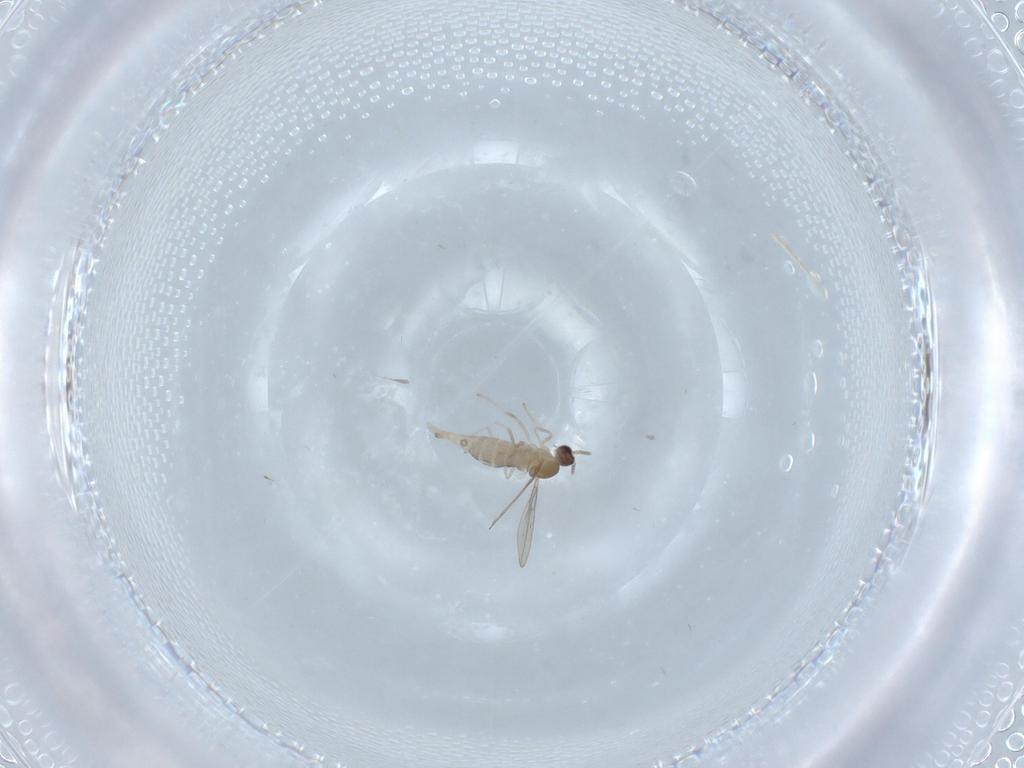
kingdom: Animalia
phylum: Arthropoda
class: Insecta
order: Diptera
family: Cecidomyiidae
